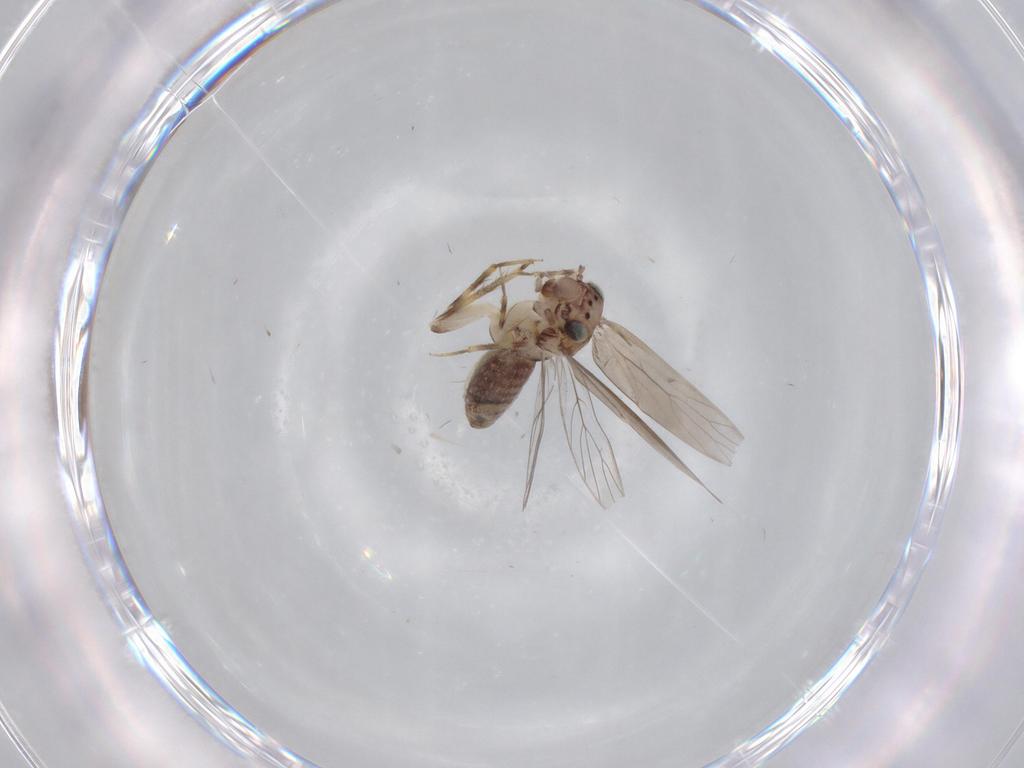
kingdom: Animalia
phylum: Arthropoda
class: Insecta
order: Psocodea
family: Lepidopsocidae
